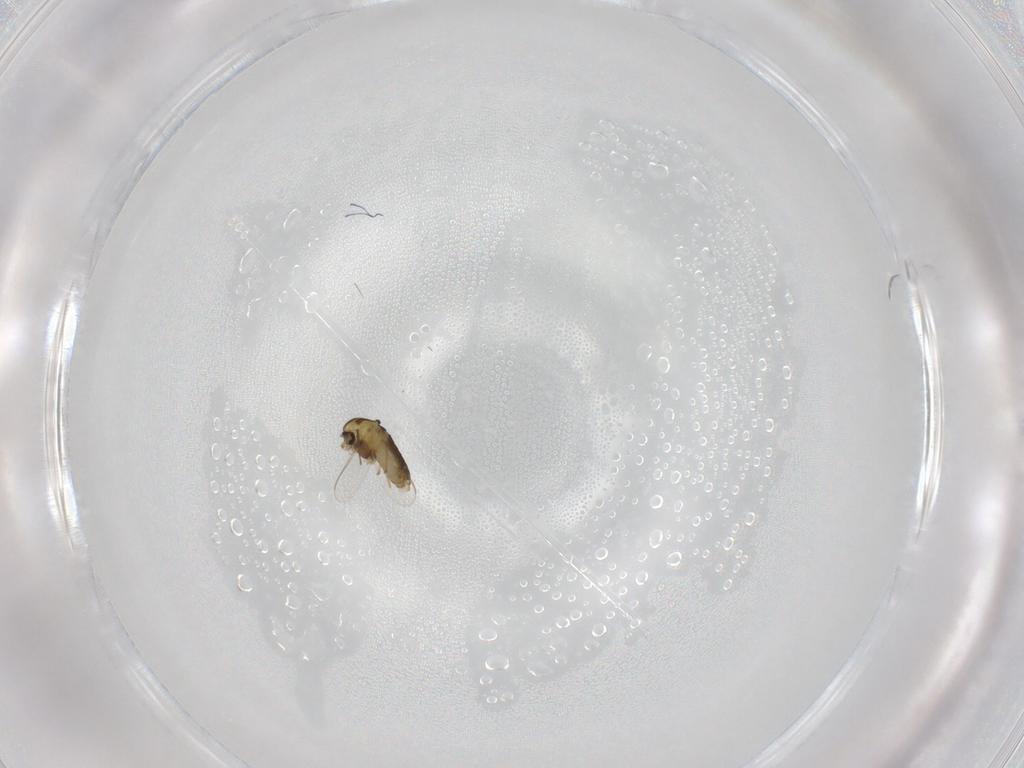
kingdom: Animalia
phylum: Arthropoda
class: Insecta
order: Diptera
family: Chironomidae
